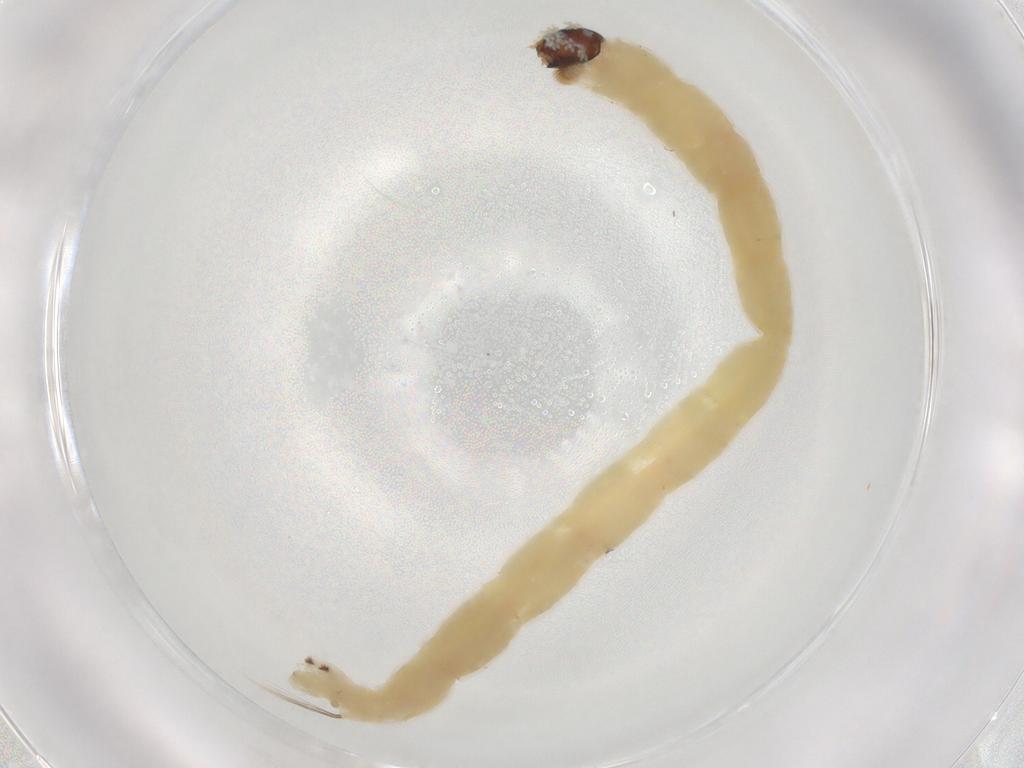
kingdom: Animalia
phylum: Arthropoda
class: Insecta
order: Diptera
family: Chironomidae
